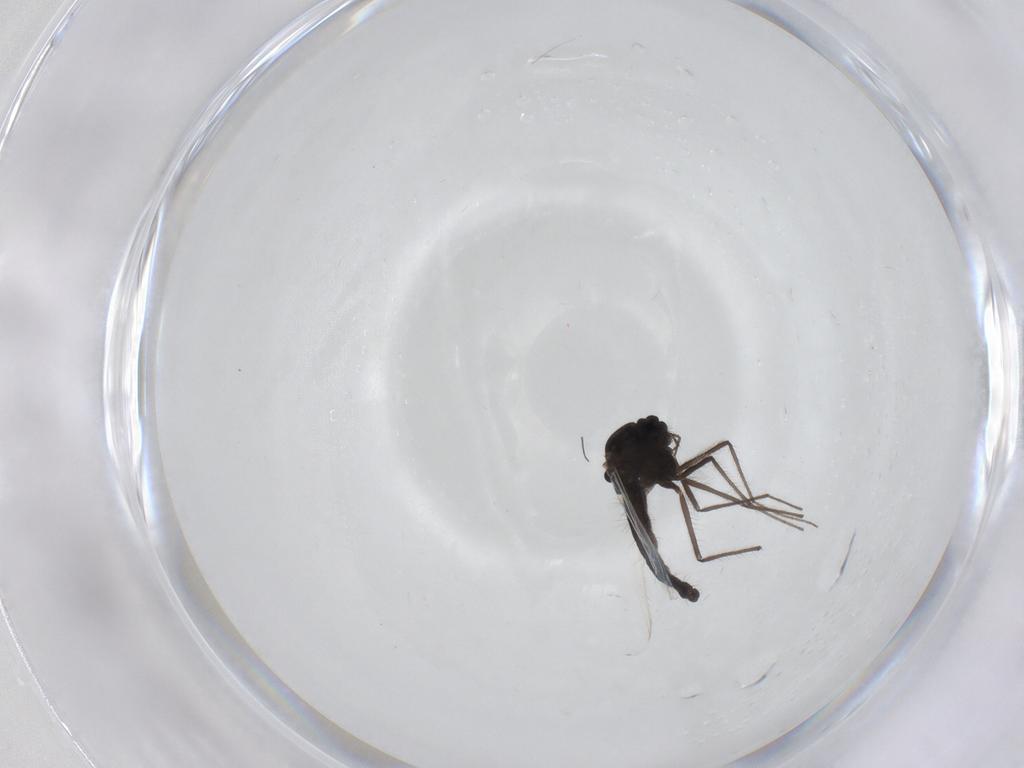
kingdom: Animalia
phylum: Arthropoda
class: Insecta
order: Diptera
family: Chironomidae
